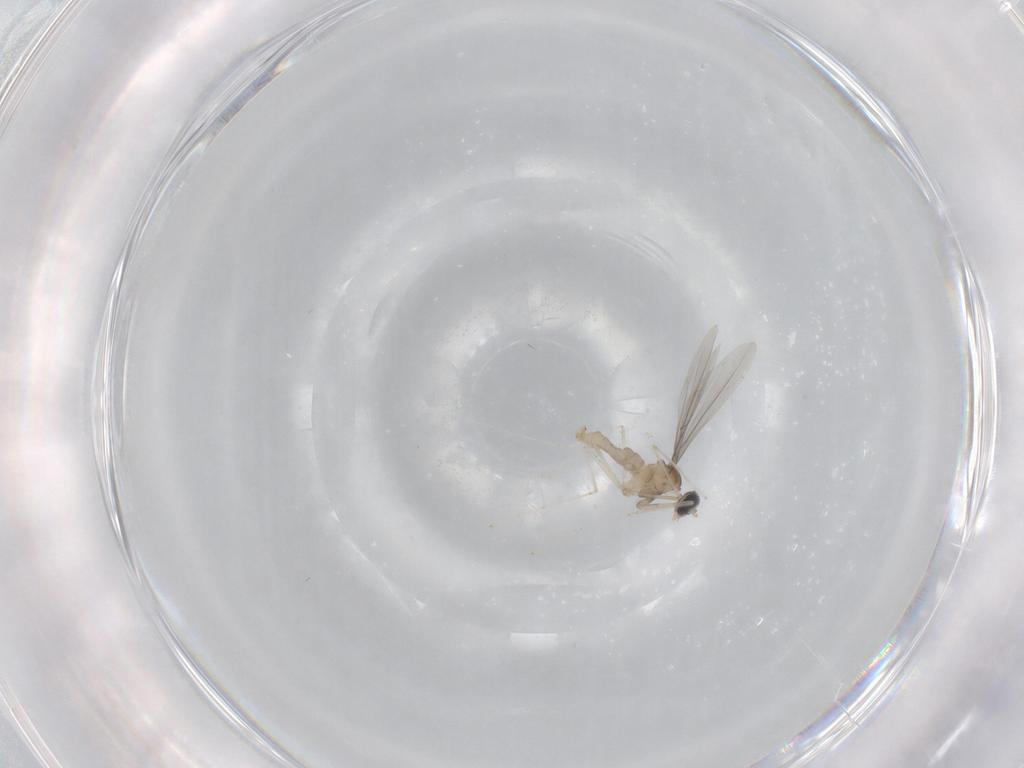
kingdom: Animalia
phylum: Arthropoda
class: Insecta
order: Diptera
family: Cecidomyiidae
